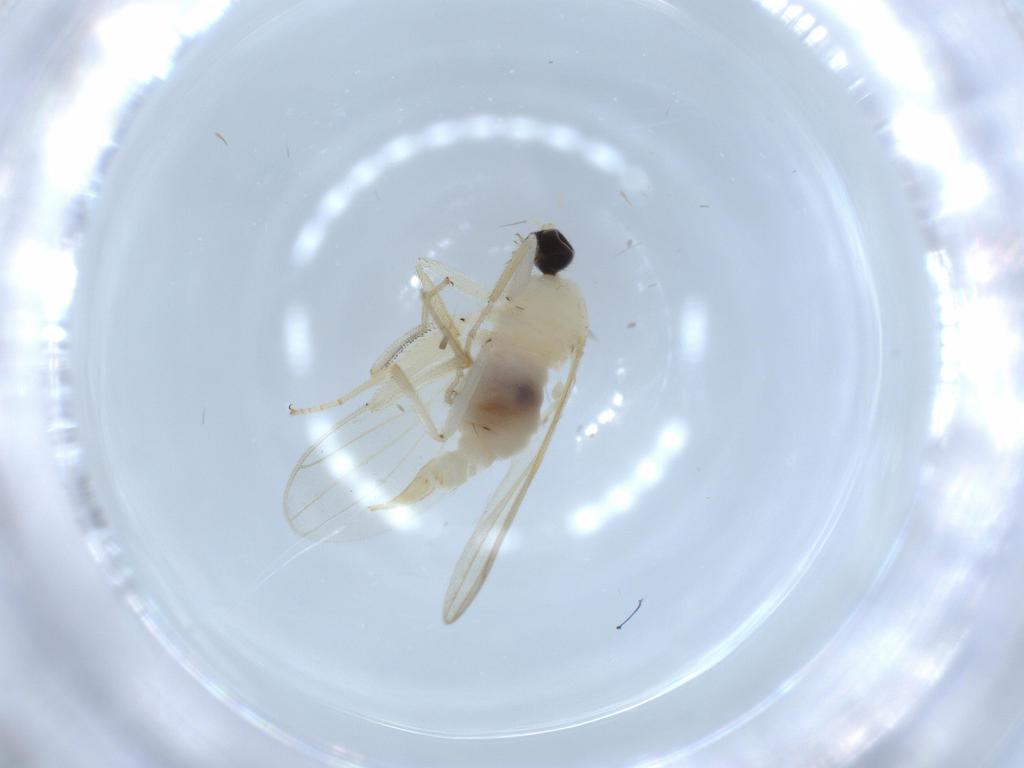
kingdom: Animalia
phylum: Arthropoda
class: Insecta
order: Diptera
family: Hybotidae
